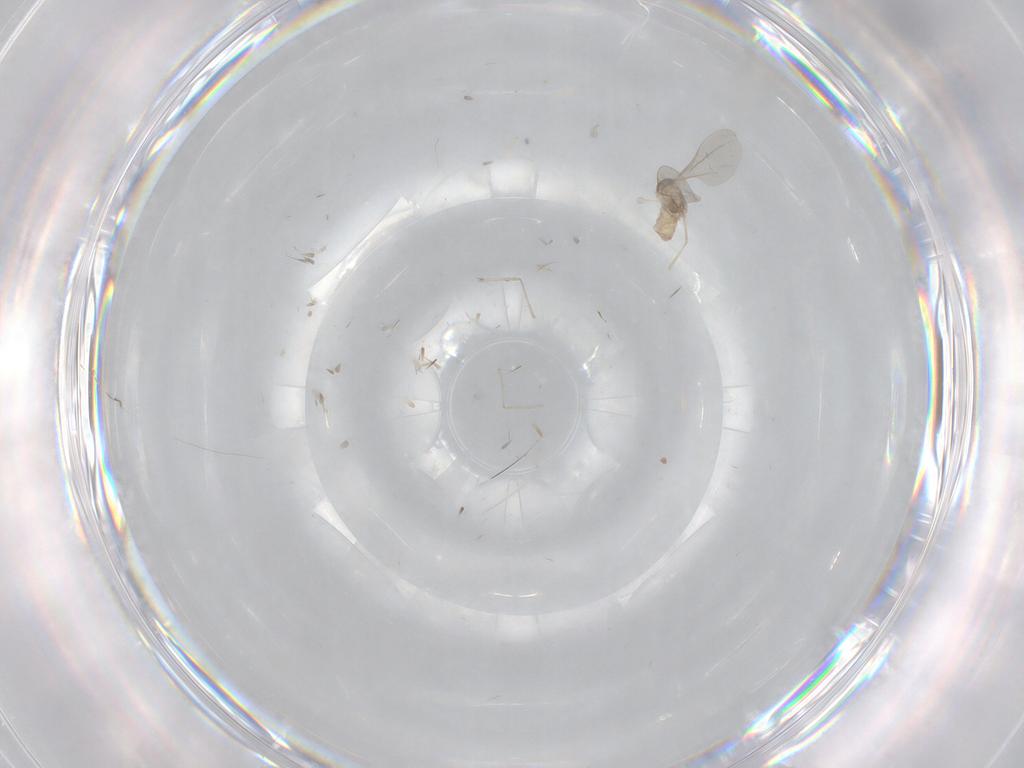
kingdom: Animalia
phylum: Arthropoda
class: Insecta
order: Diptera
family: Cecidomyiidae
